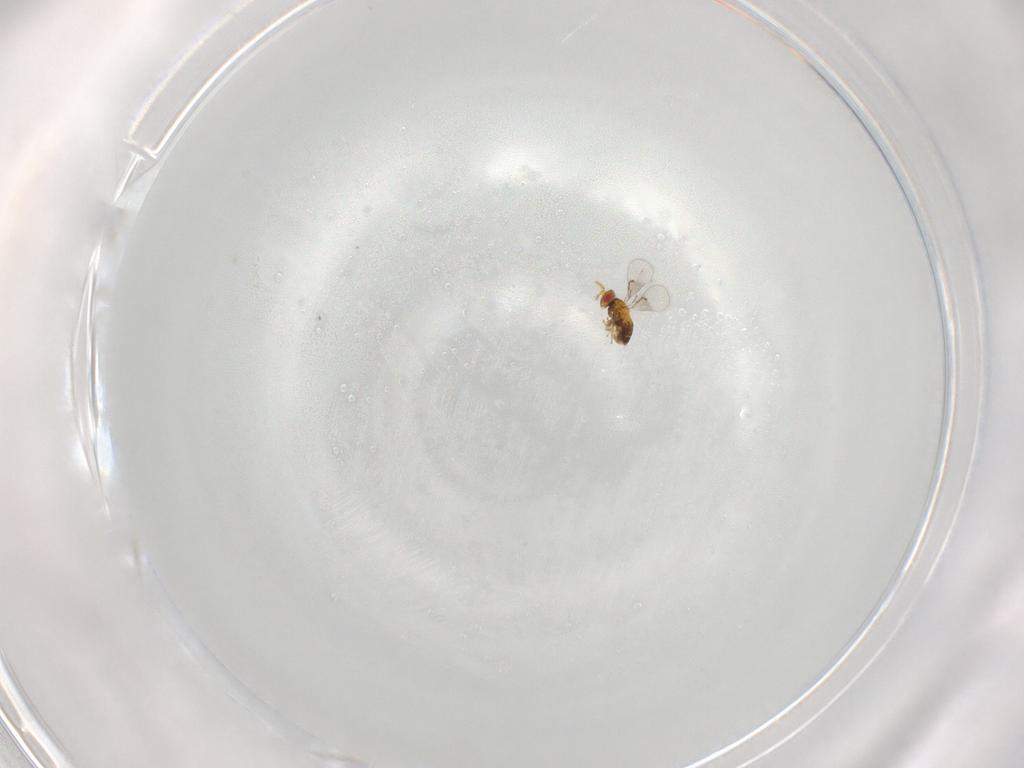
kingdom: Animalia
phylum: Arthropoda
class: Insecta
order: Hymenoptera
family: Trichogrammatidae
